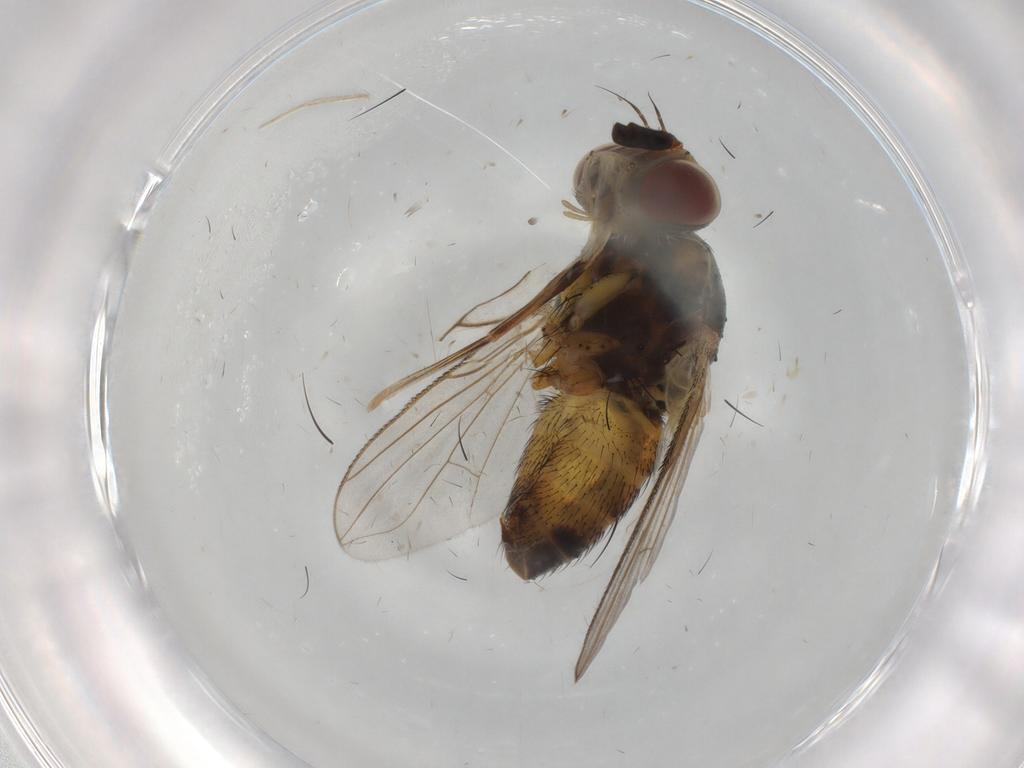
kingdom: Animalia
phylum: Arthropoda
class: Insecta
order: Diptera
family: Tachinidae
